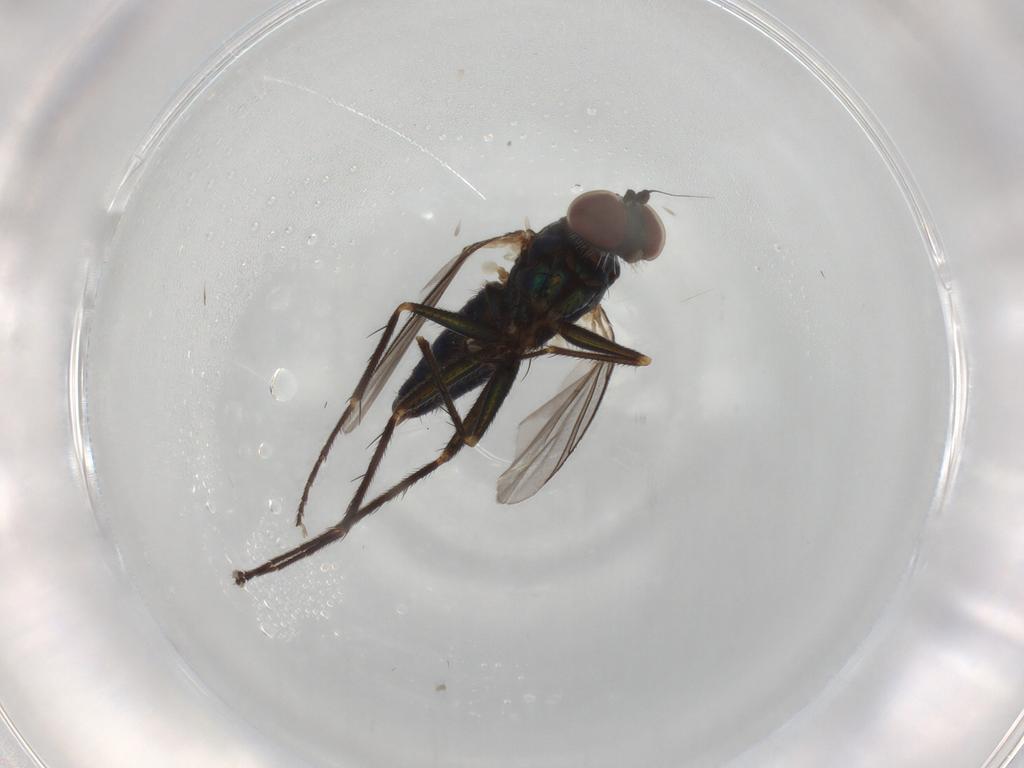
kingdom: Animalia
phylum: Arthropoda
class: Insecta
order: Diptera
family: Dolichopodidae
